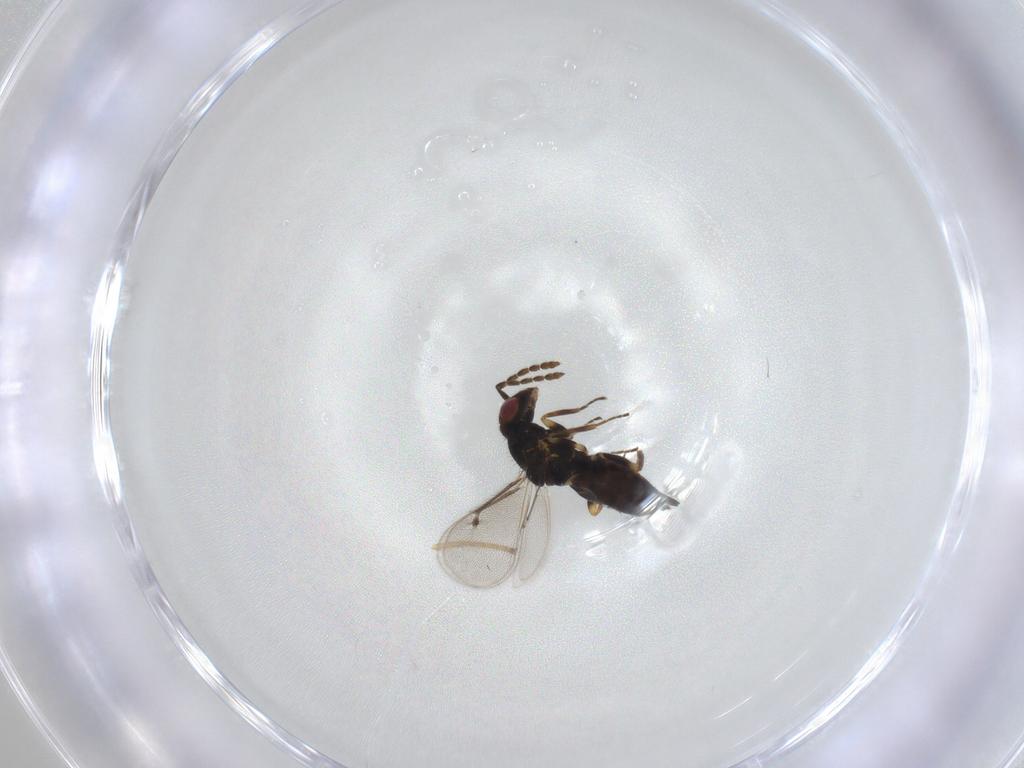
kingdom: Animalia
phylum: Arthropoda
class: Insecta
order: Hymenoptera
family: Eulophidae
